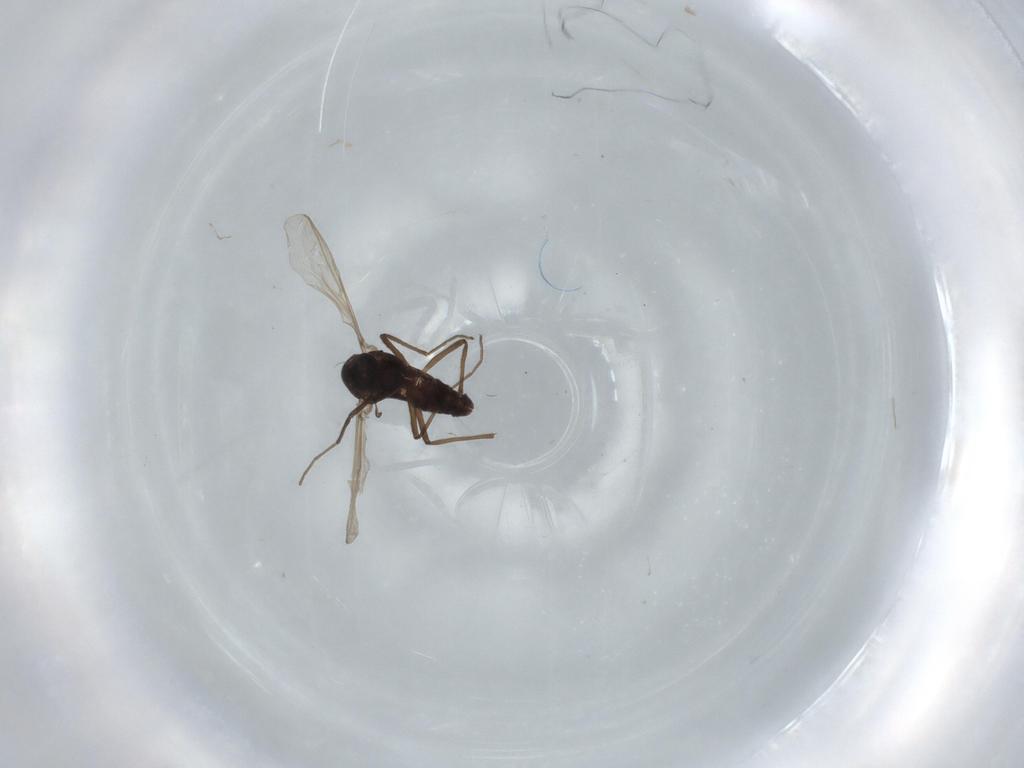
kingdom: Animalia
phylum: Arthropoda
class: Insecta
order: Diptera
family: Chironomidae
